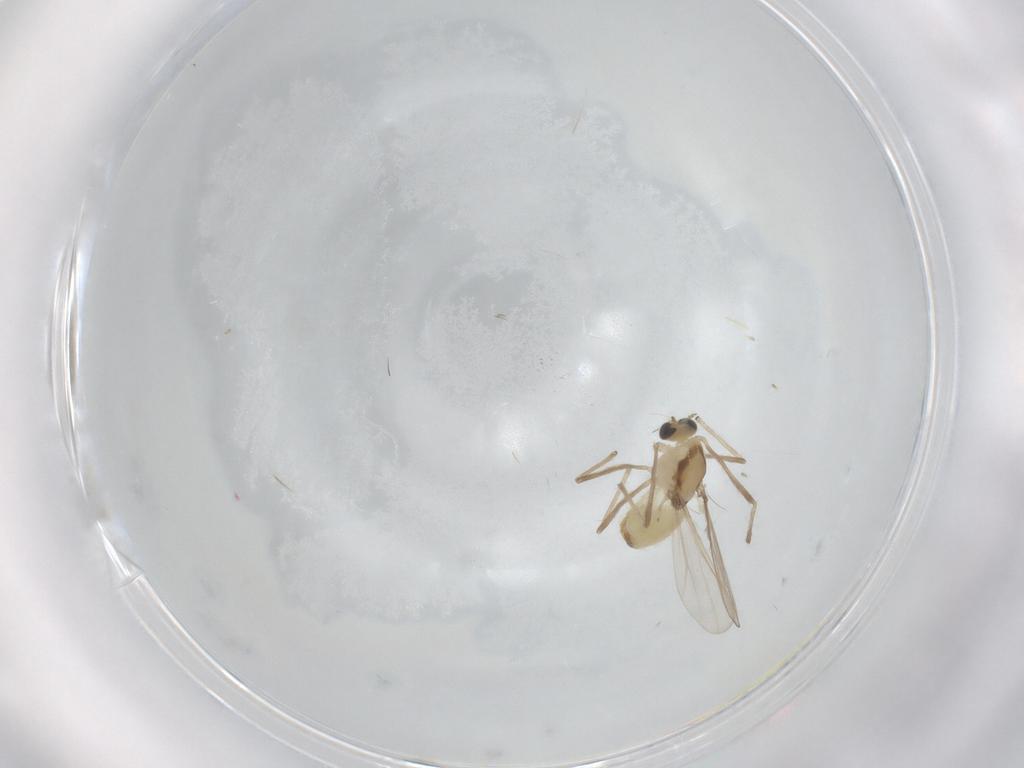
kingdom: Animalia
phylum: Arthropoda
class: Insecta
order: Diptera
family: Chironomidae
